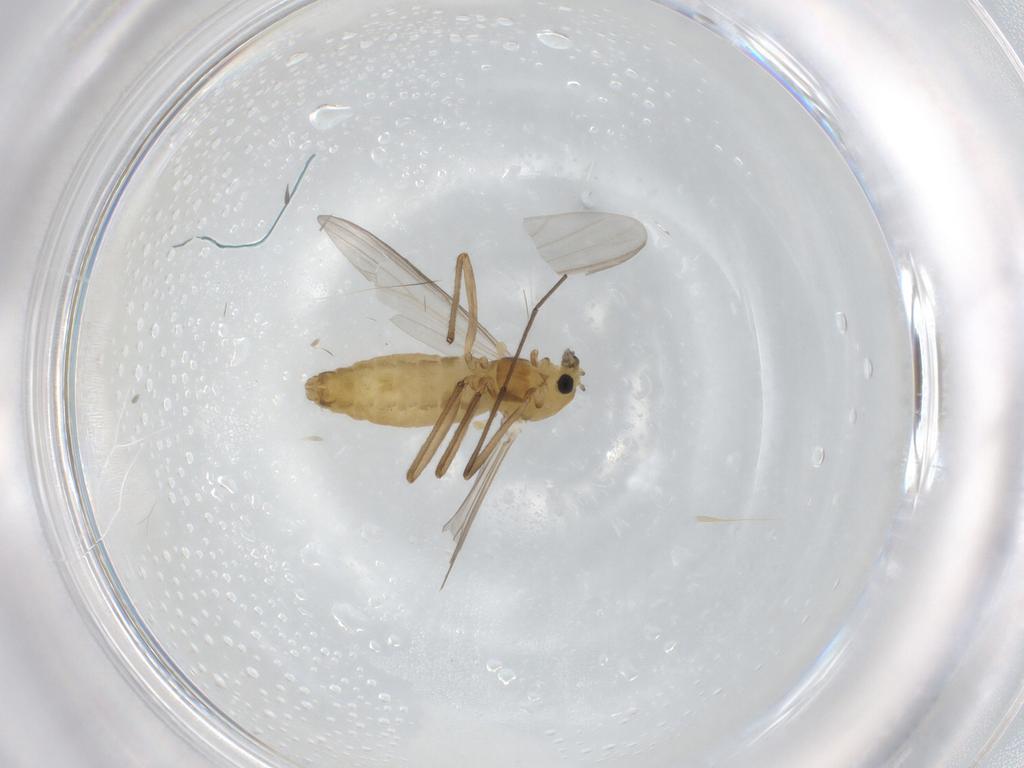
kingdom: Animalia
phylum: Arthropoda
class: Insecta
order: Diptera
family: Chironomidae
